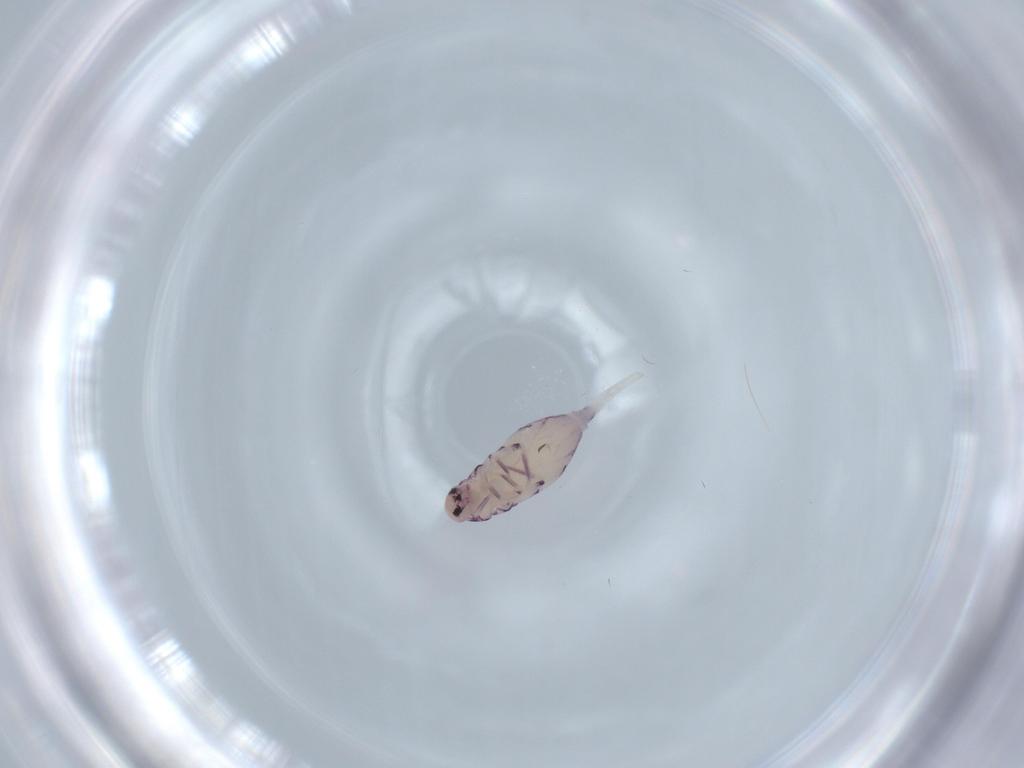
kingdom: Animalia
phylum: Arthropoda
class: Collembola
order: Entomobryomorpha
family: Entomobryidae
